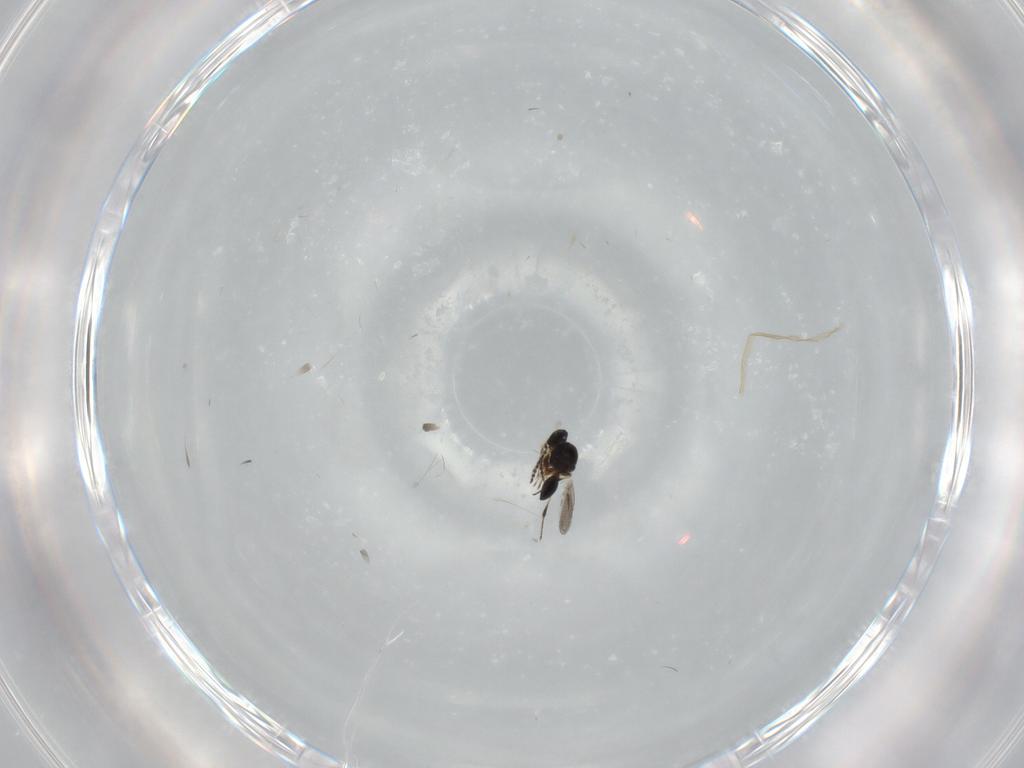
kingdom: Animalia
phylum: Arthropoda
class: Insecta
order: Hymenoptera
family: Platygastridae
